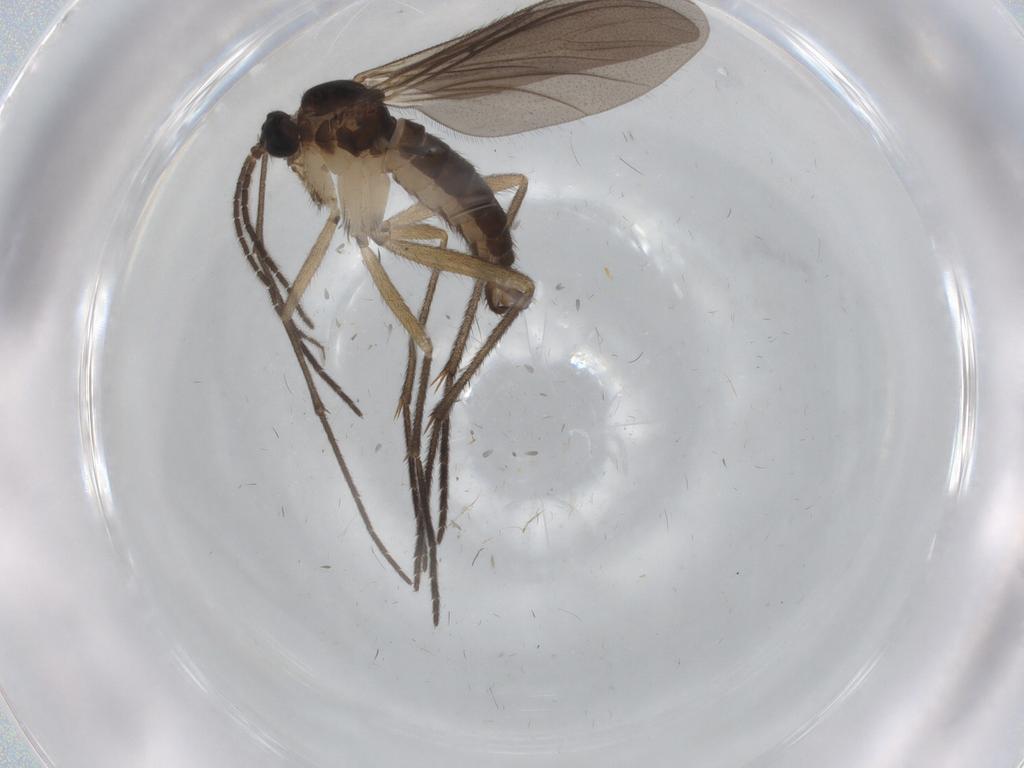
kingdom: Animalia
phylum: Arthropoda
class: Insecta
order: Diptera
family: Sciaridae
